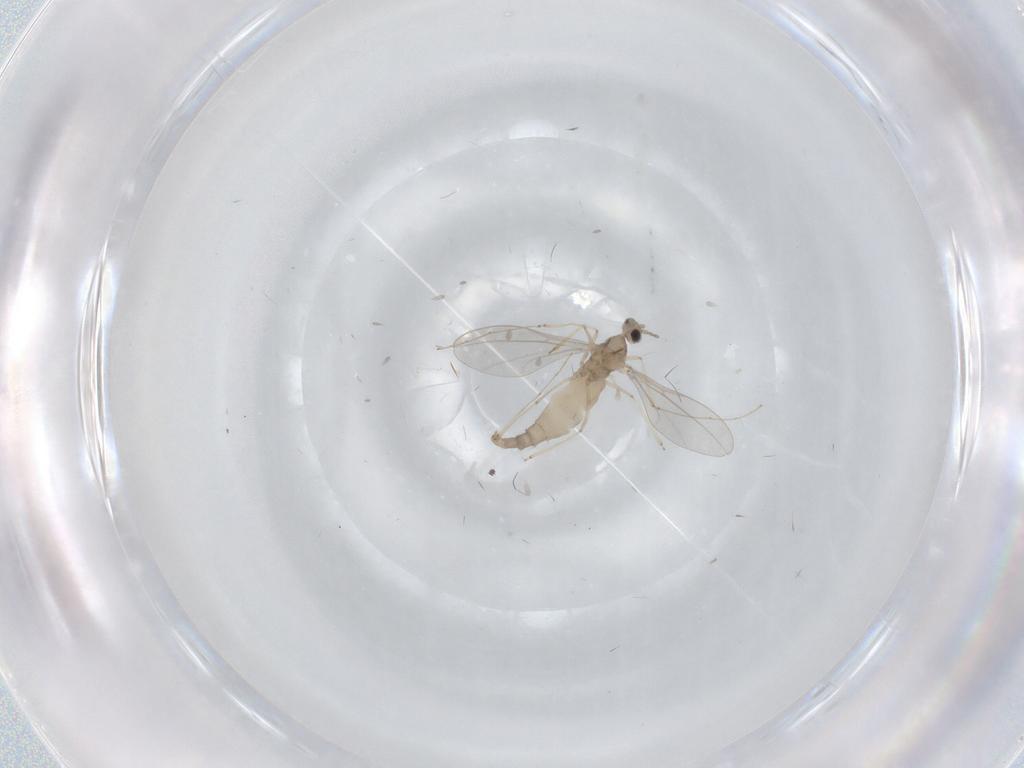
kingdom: Animalia
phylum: Arthropoda
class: Insecta
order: Diptera
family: Cecidomyiidae
